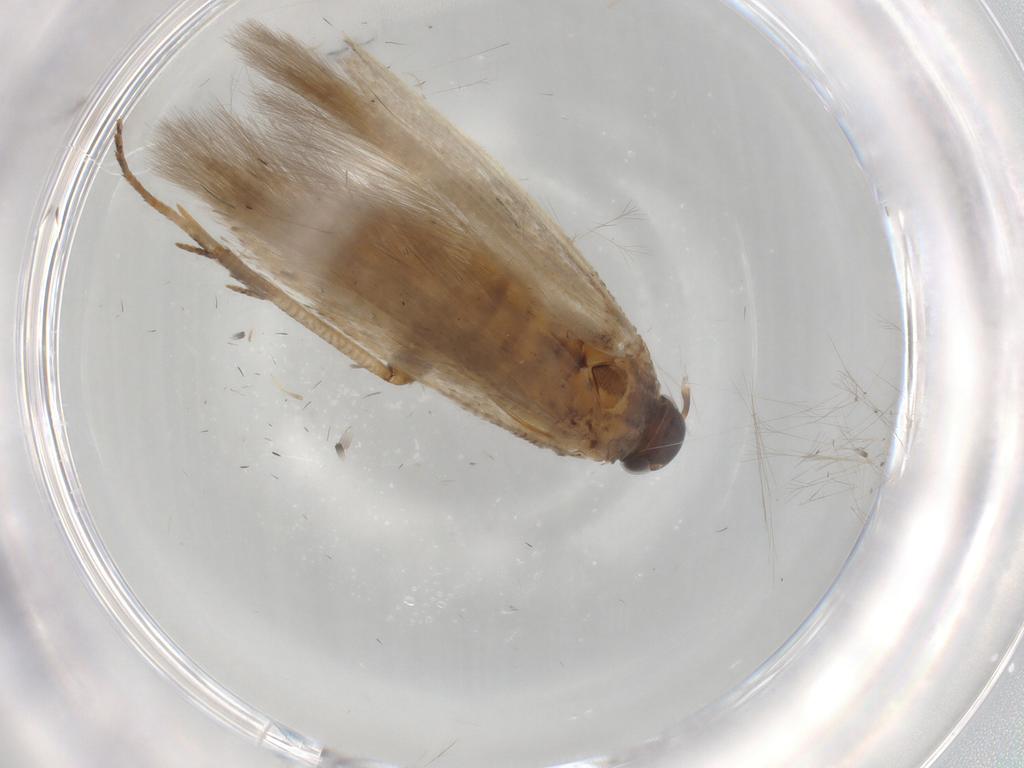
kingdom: Animalia
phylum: Arthropoda
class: Insecta
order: Lepidoptera
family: Gelechiidae
